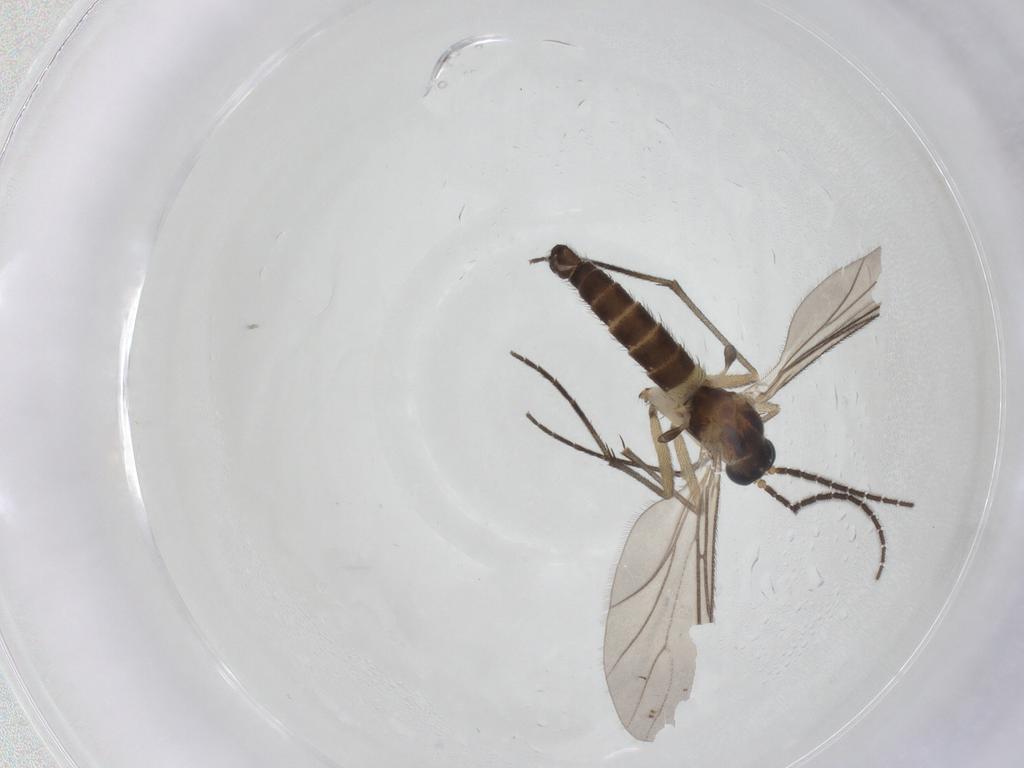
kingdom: Animalia
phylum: Arthropoda
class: Insecta
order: Diptera
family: Sciaridae
